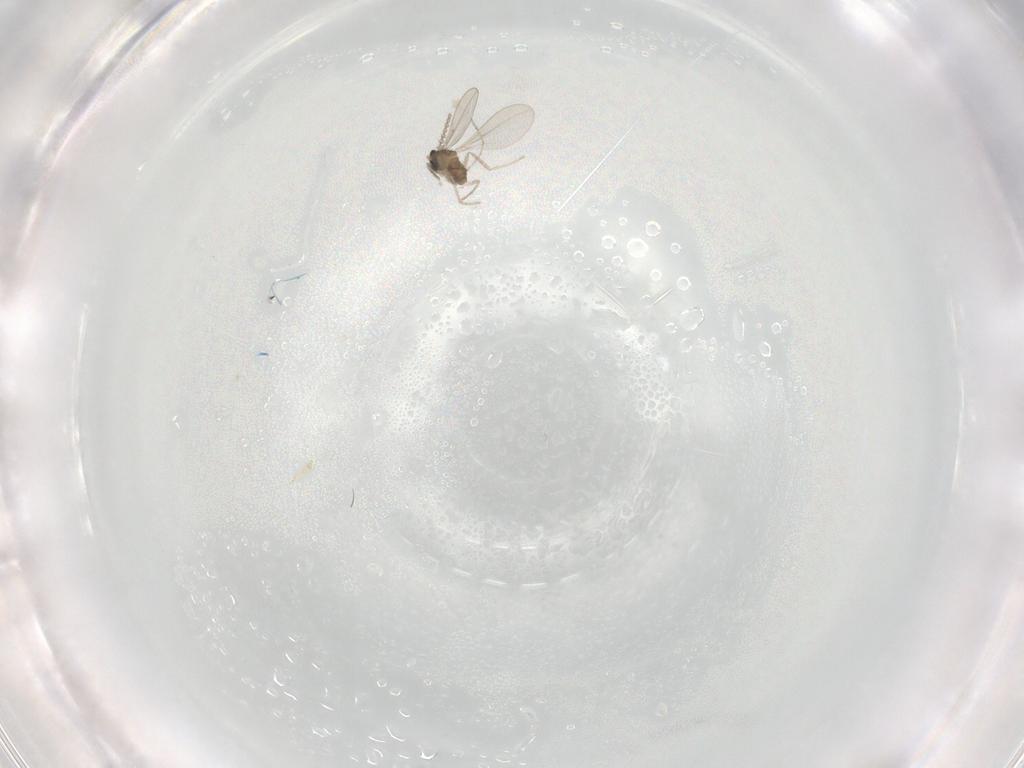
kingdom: Animalia
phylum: Arthropoda
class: Insecta
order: Diptera
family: Cecidomyiidae
